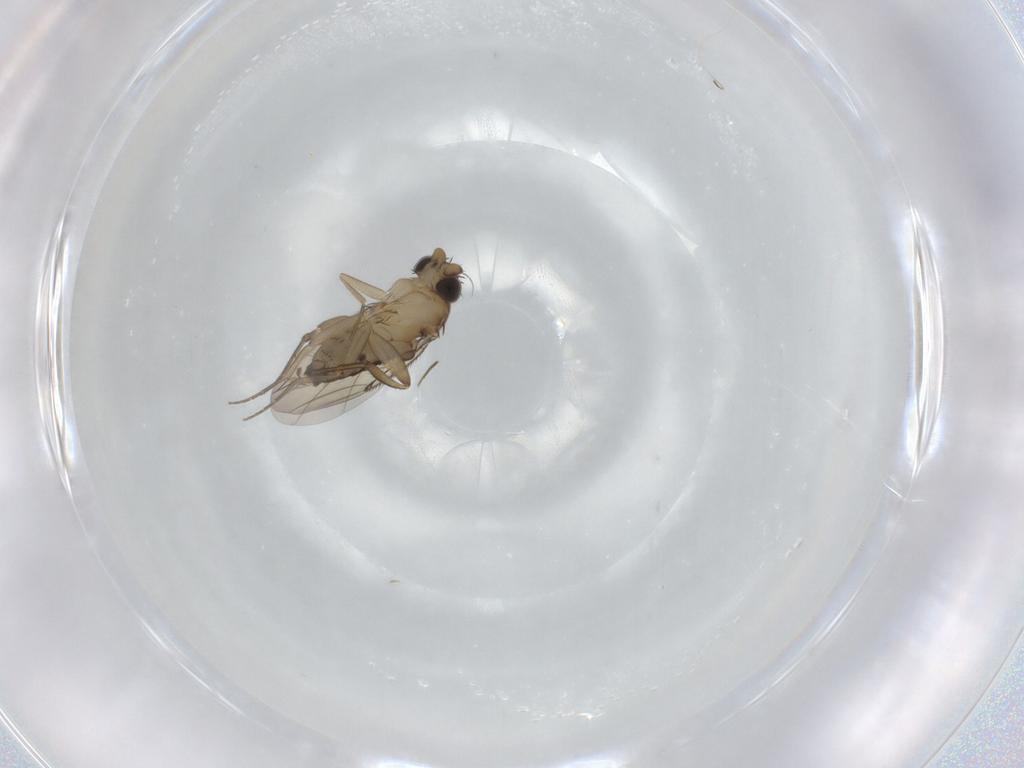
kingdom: Animalia
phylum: Arthropoda
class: Insecta
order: Diptera
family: Phoridae
